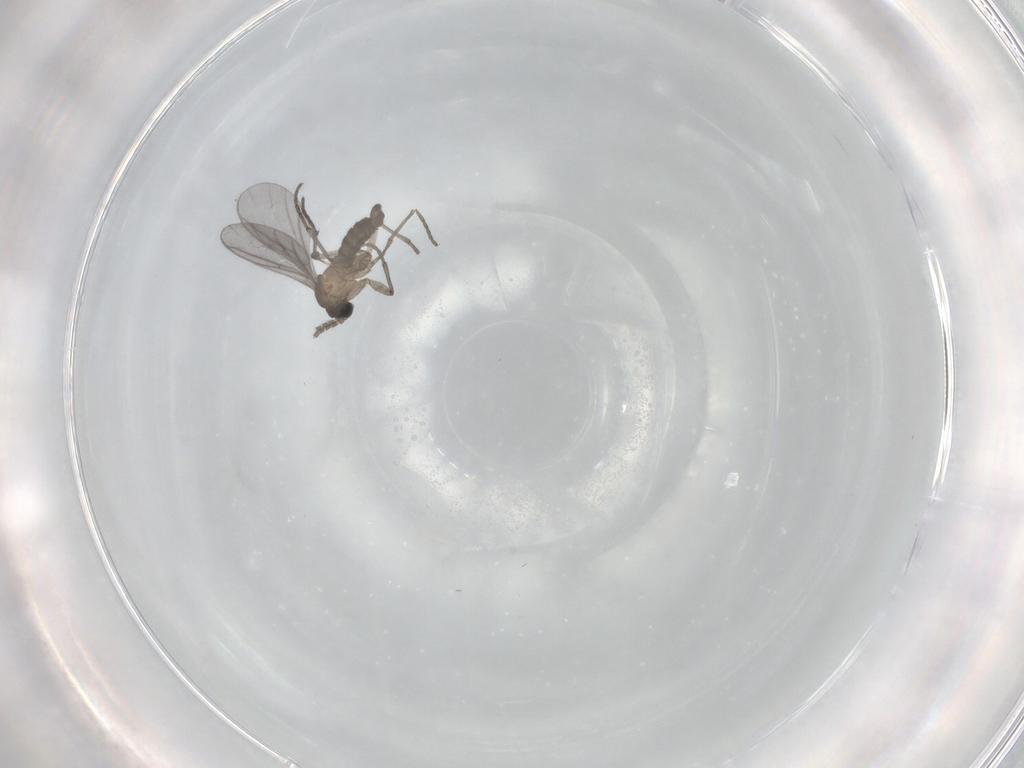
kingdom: Animalia
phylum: Arthropoda
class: Insecta
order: Diptera
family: Sciaridae
